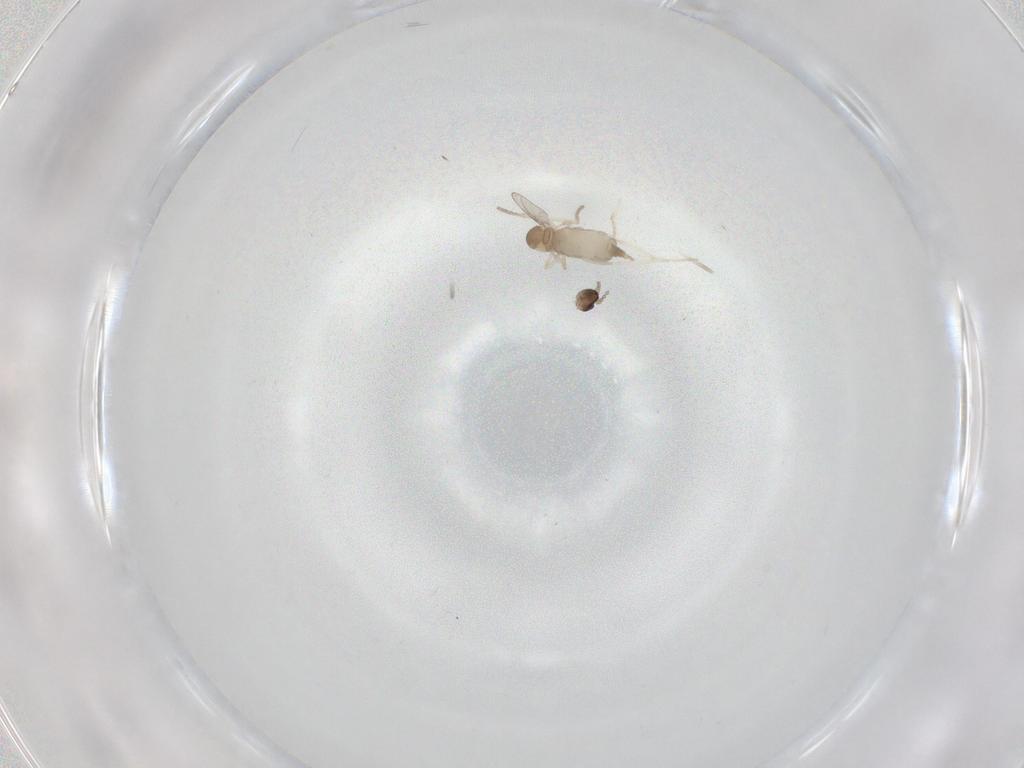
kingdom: Animalia
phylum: Arthropoda
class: Insecta
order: Diptera
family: Cecidomyiidae
